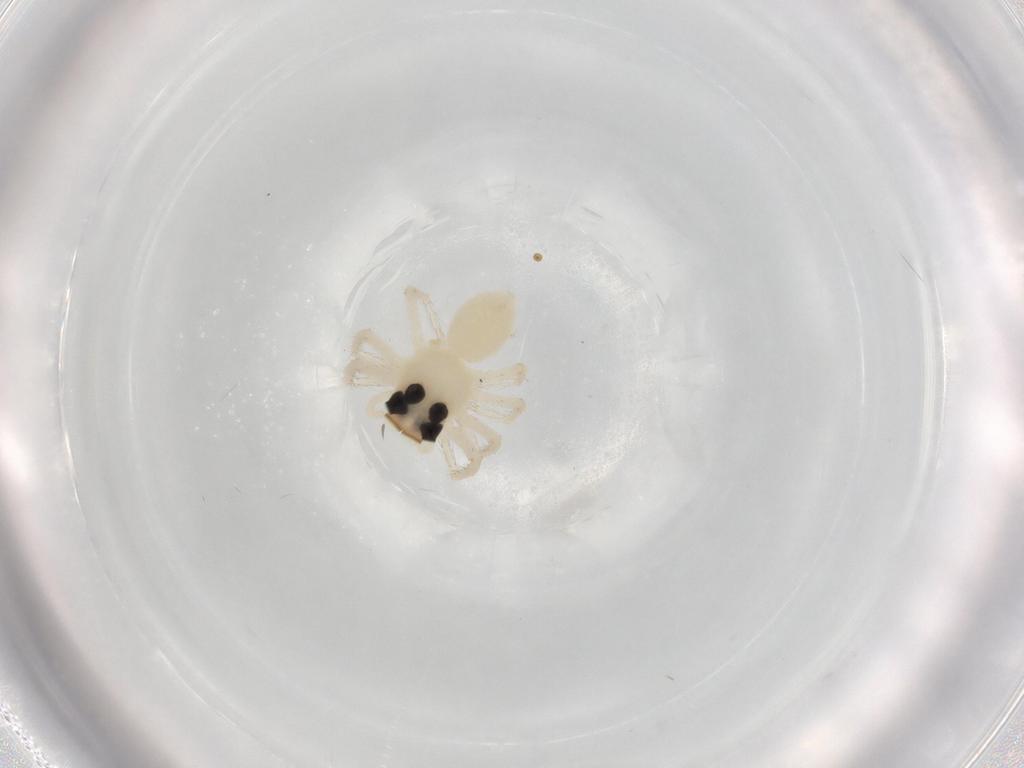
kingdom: Animalia
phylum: Arthropoda
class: Arachnida
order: Araneae
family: Salticidae
